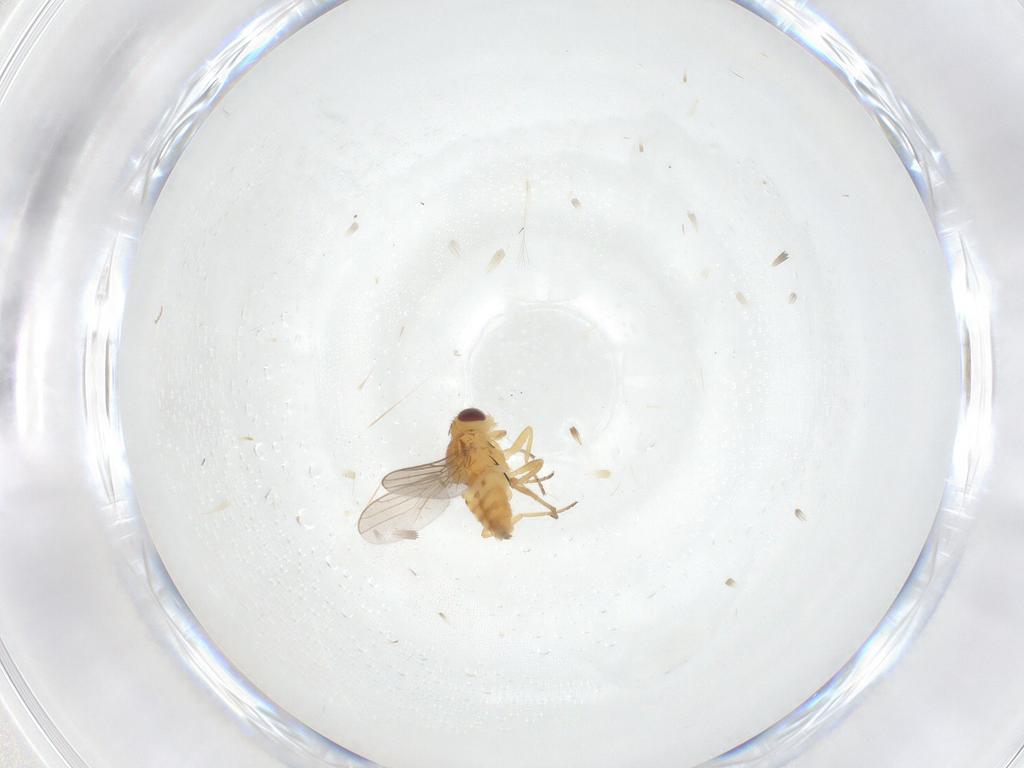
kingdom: Animalia
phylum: Arthropoda
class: Insecta
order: Diptera
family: Chloropidae
